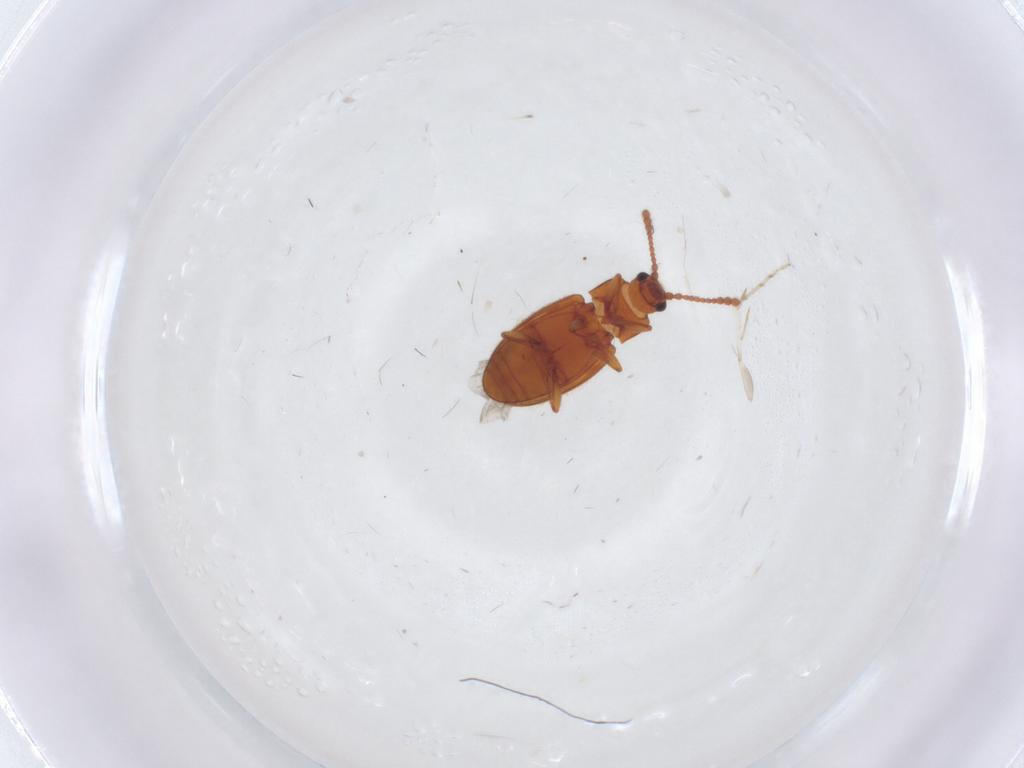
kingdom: Animalia
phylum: Arthropoda
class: Insecta
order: Coleoptera
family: Cryptophagidae
